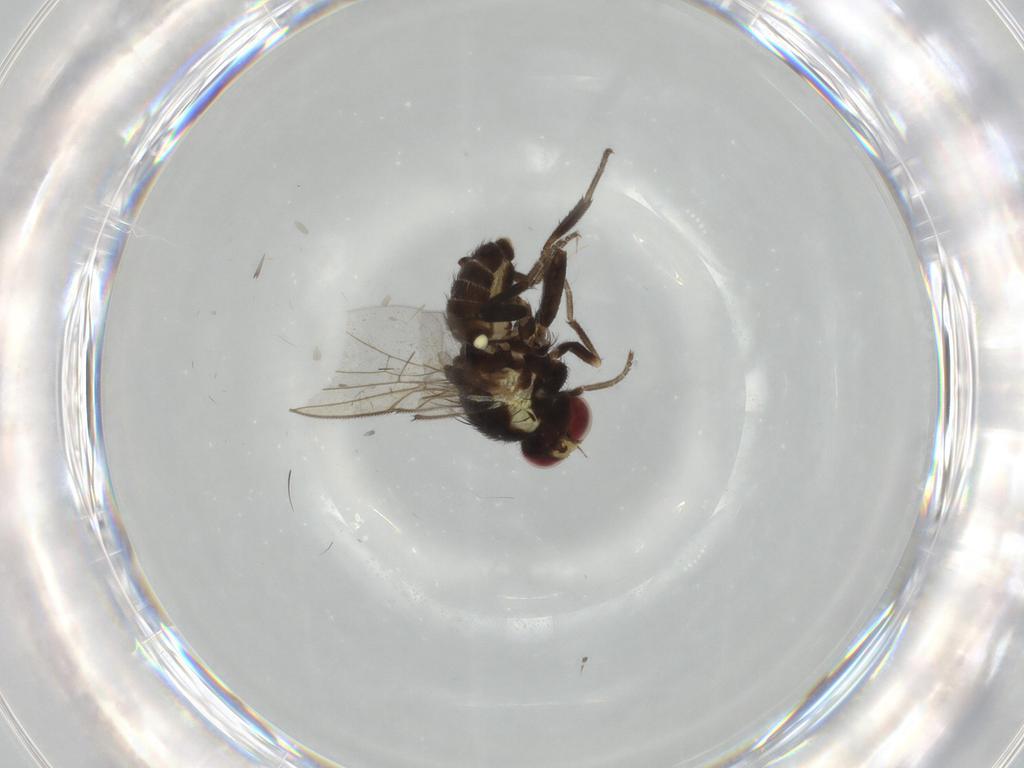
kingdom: Animalia
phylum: Arthropoda
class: Insecta
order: Diptera
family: Agromyzidae
